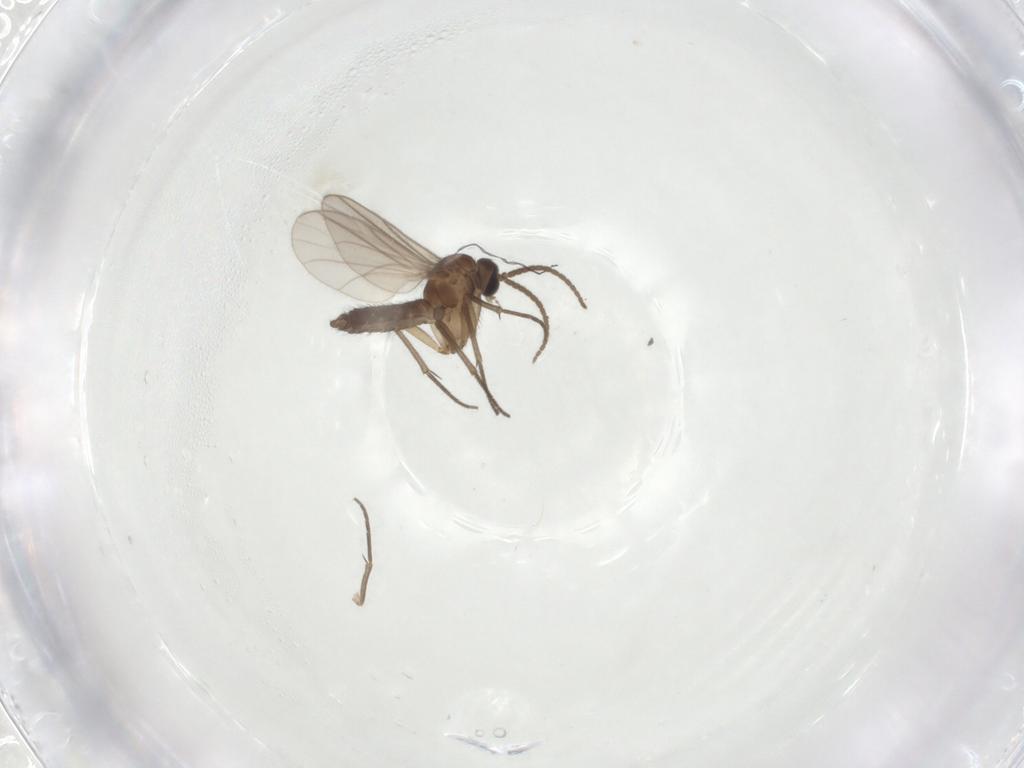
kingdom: Animalia
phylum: Arthropoda
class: Insecta
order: Diptera
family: Sciaridae
